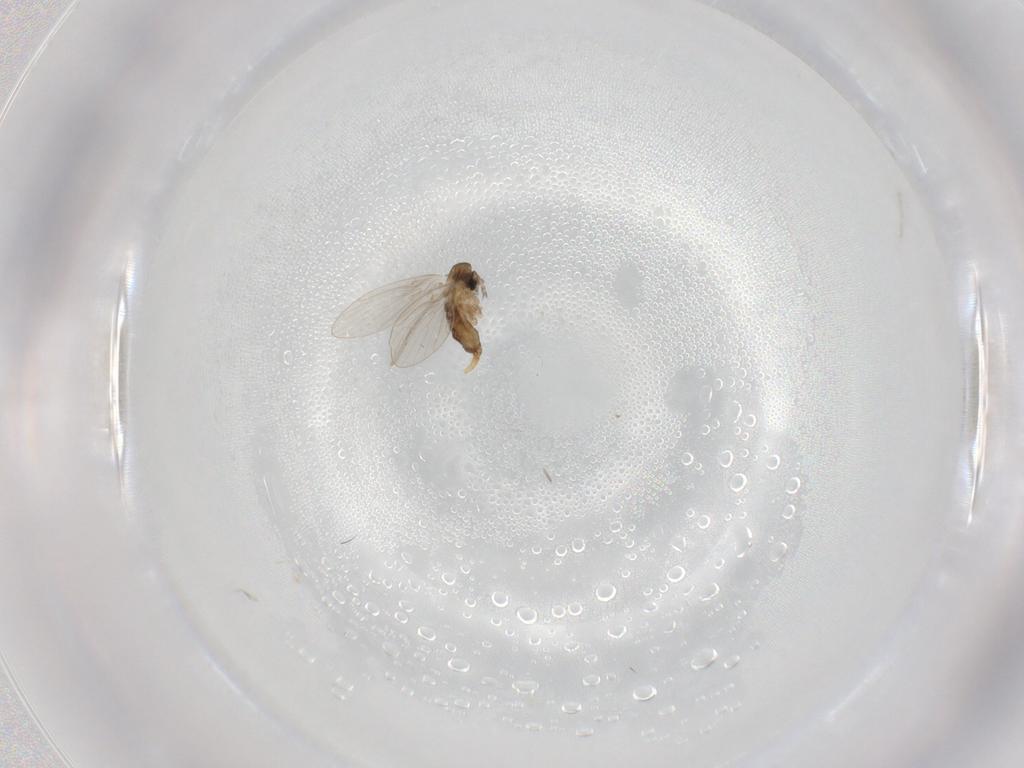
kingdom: Animalia
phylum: Arthropoda
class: Insecta
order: Diptera
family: Psychodidae
